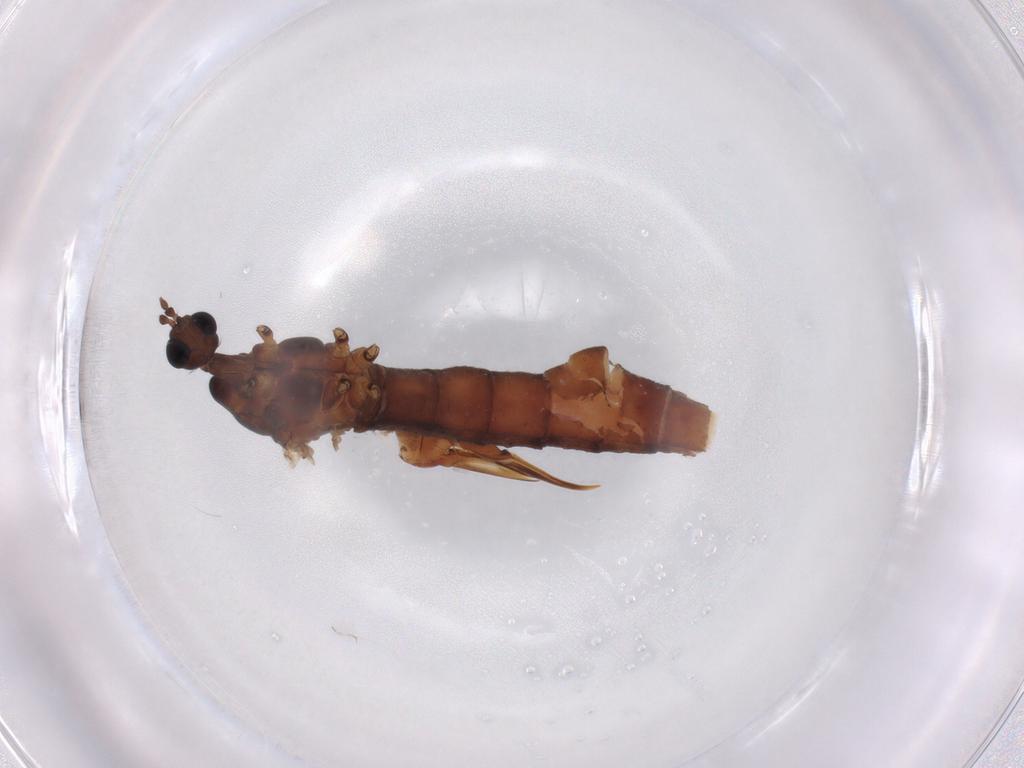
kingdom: Animalia
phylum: Arthropoda
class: Insecta
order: Diptera
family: Limoniidae
